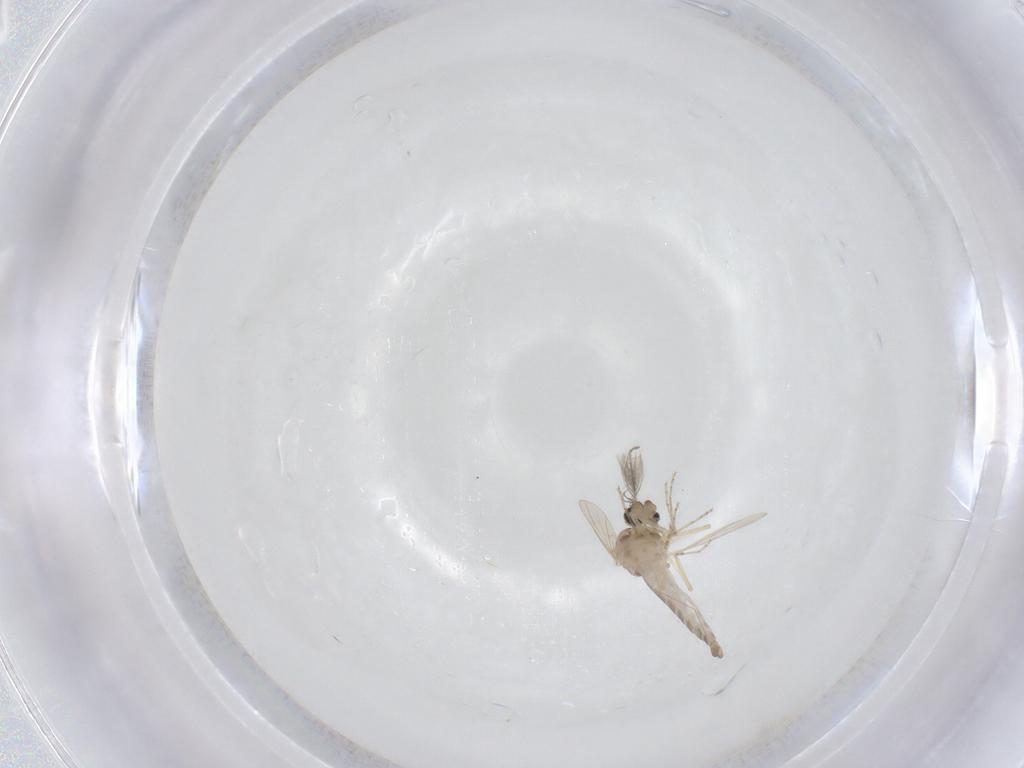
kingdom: Animalia
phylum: Arthropoda
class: Insecta
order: Diptera
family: Ceratopogonidae
